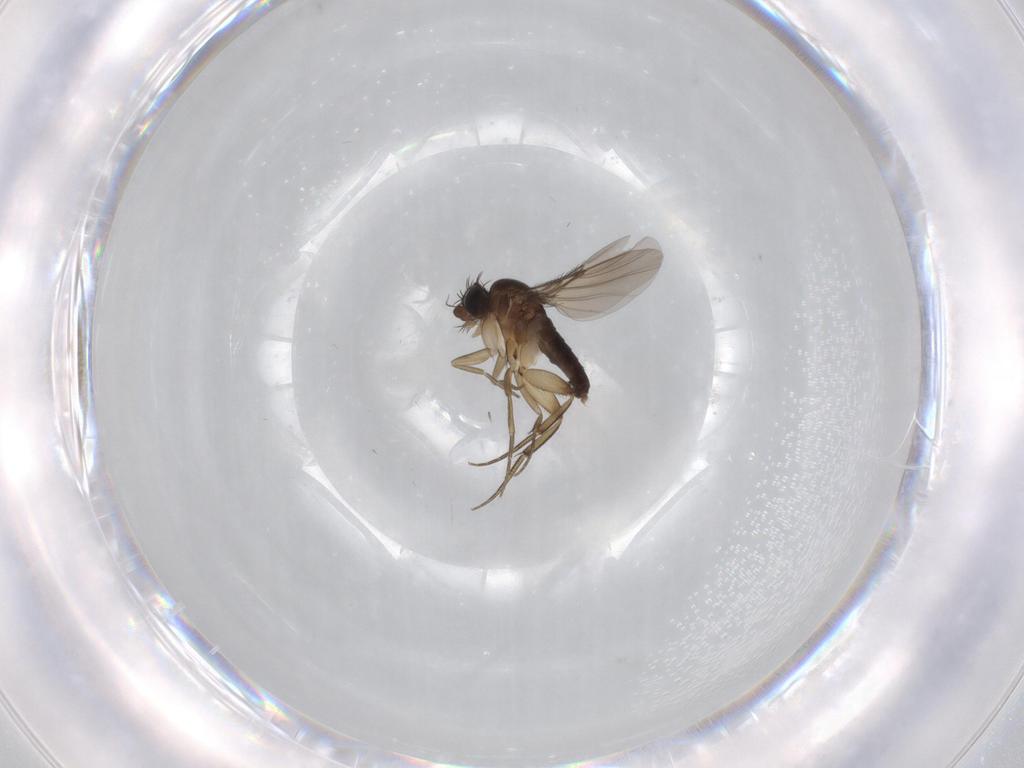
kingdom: Animalia
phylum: Arthropoda
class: Insecta
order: Diptera
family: Phoridae
